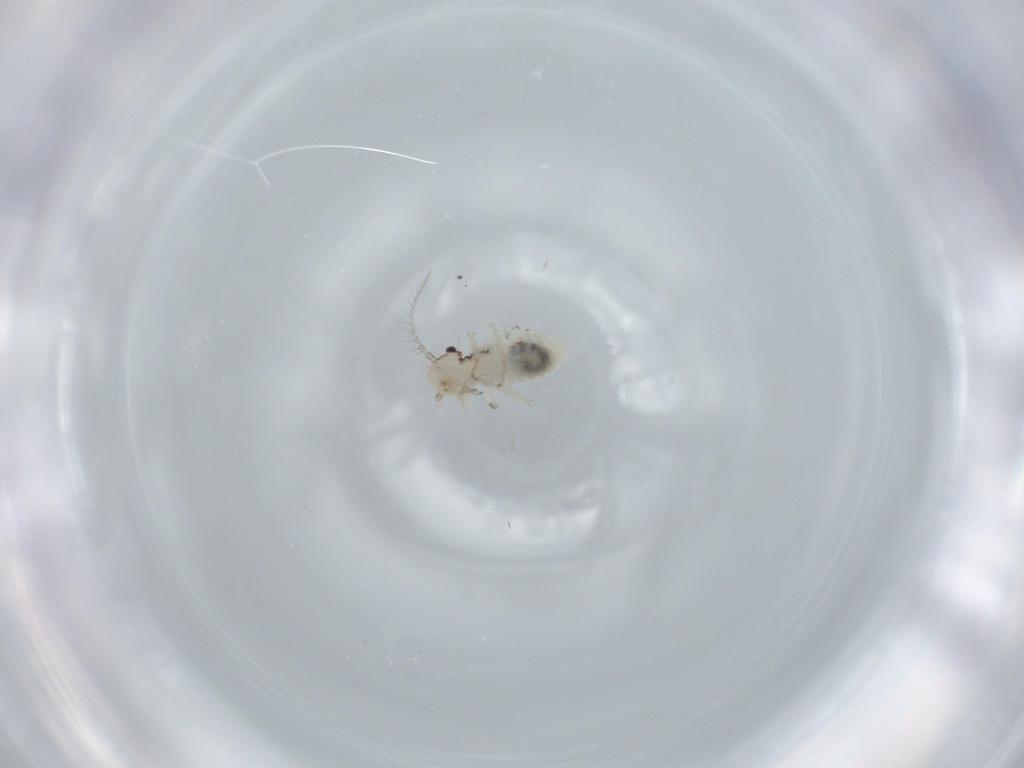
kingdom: Animalia
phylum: Arthropoda
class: Insecta
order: Psocodea
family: Pseudocaeciliidae
